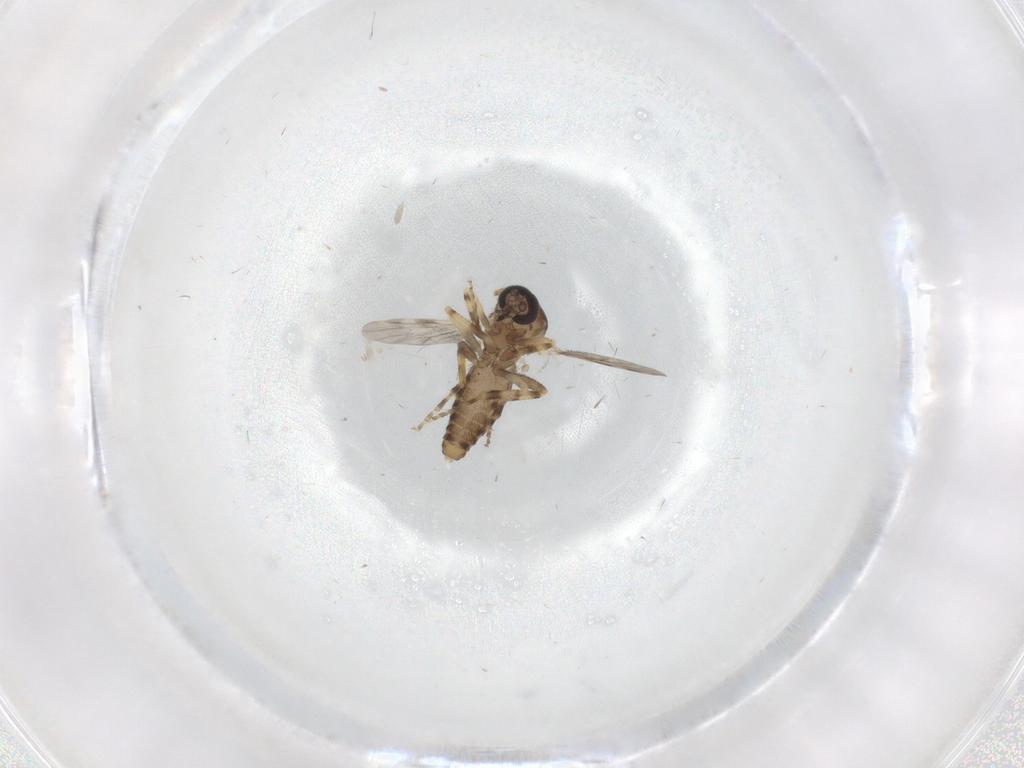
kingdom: Animalia
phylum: Arthropoda
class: Insecta
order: Diptera
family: Ceratopogonidae
